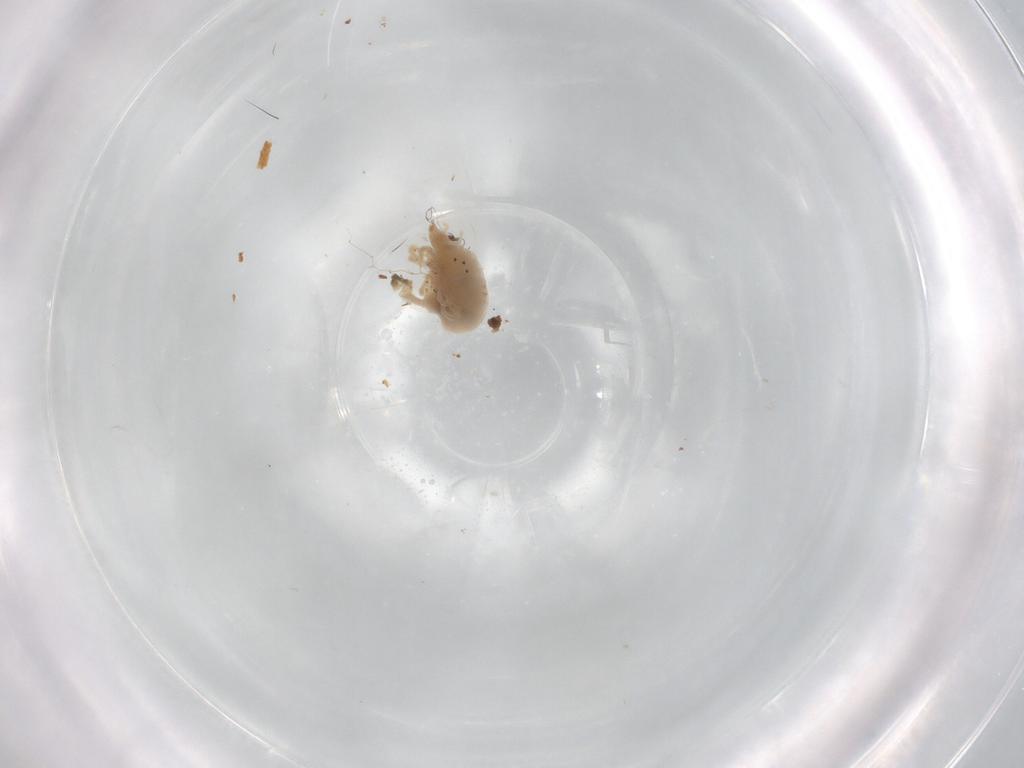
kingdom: Animalia
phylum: Arthropoda
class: Arachnida
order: Trombidiformes
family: Bdellidae
